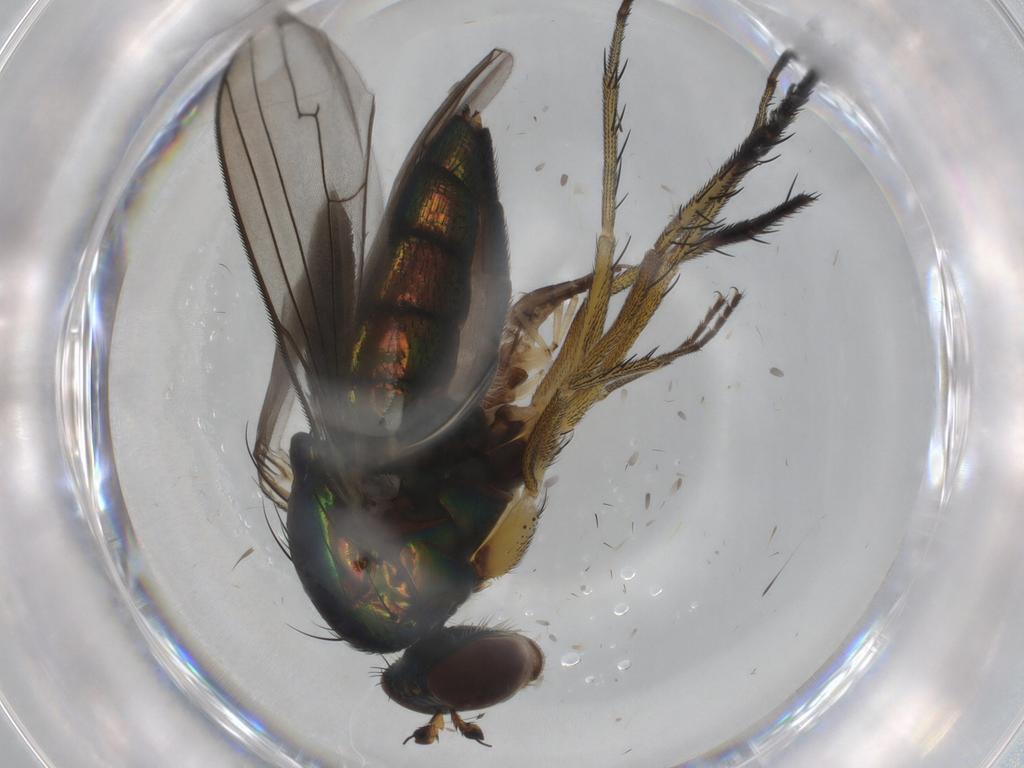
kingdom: Animalia
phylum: Arthropoda
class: Insecta
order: Diptera
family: Dolichopodidae
